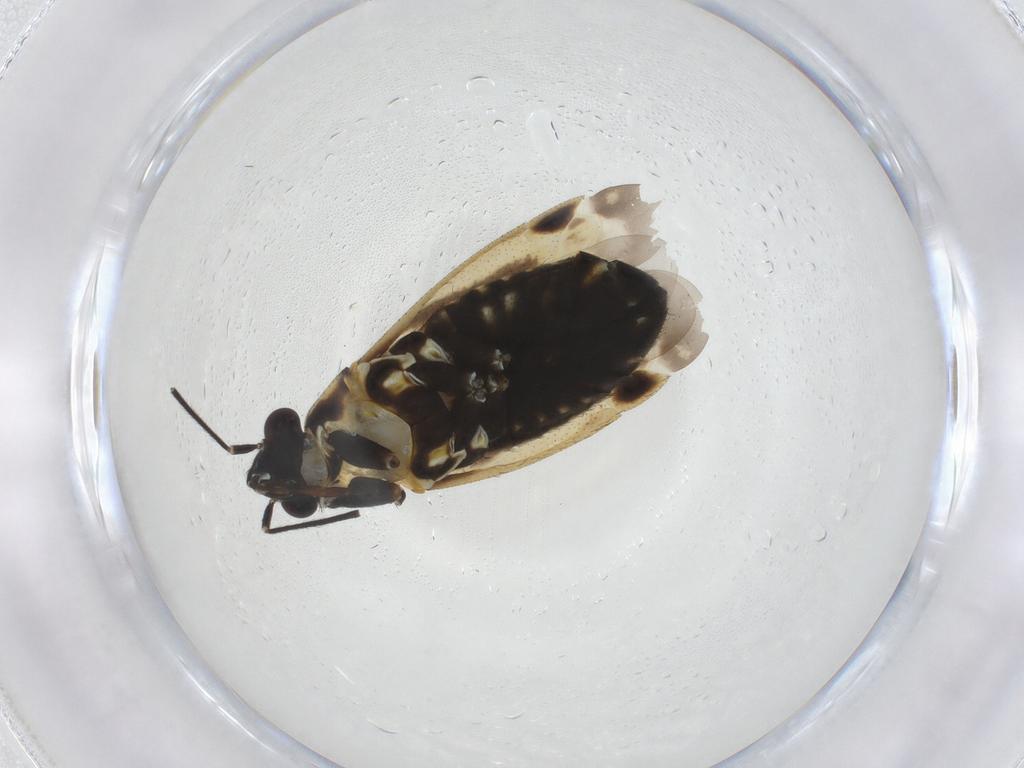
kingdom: Animalia
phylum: Arthropoda
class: Insecta
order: Hemiptera
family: Miridae
